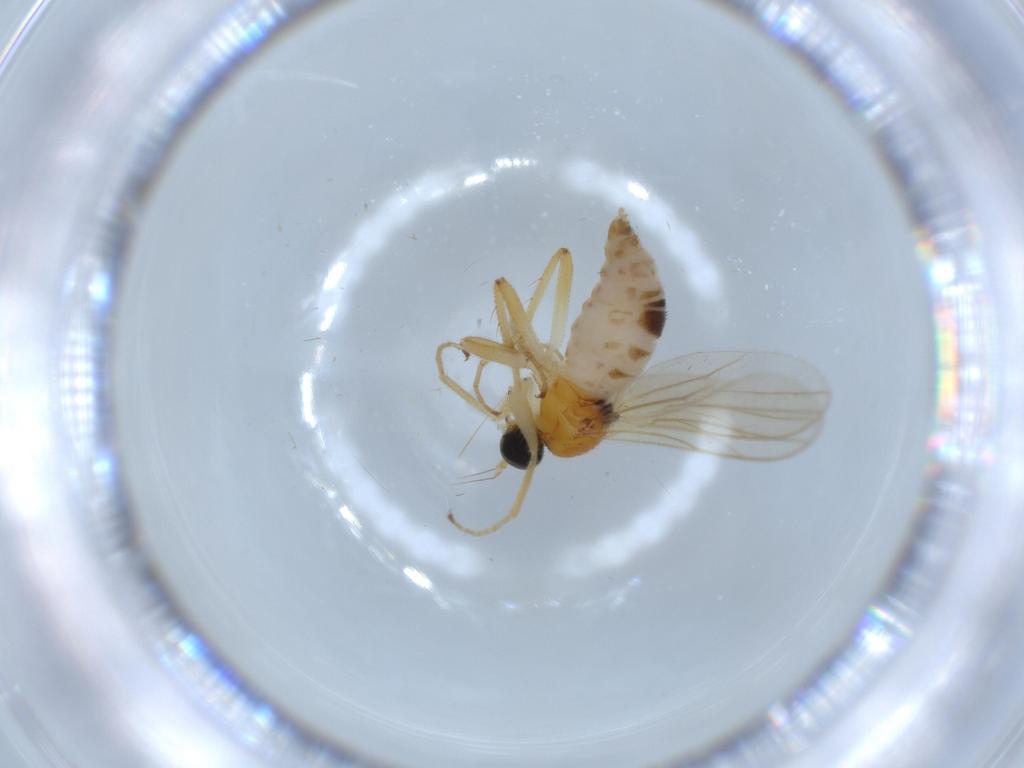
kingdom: Animalia
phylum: Arthropoda
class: Insecta
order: Diptera
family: Hybotidae
